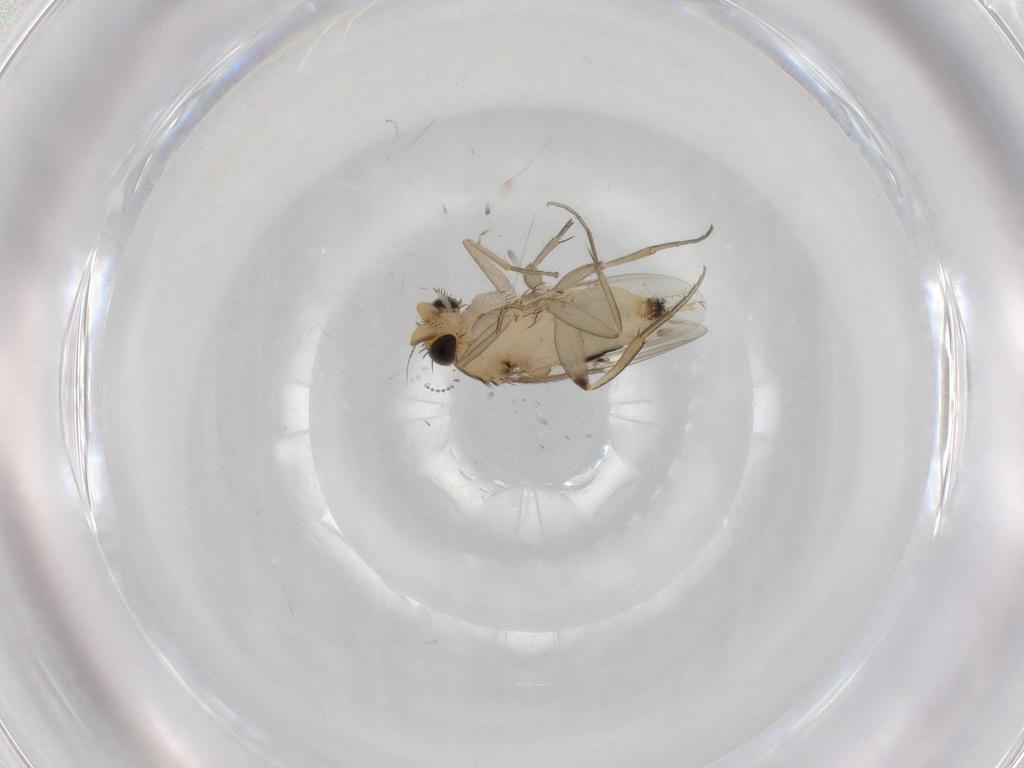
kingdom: Animalia
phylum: Arthropoda
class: Insecta
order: Diptera
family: Phoridae
